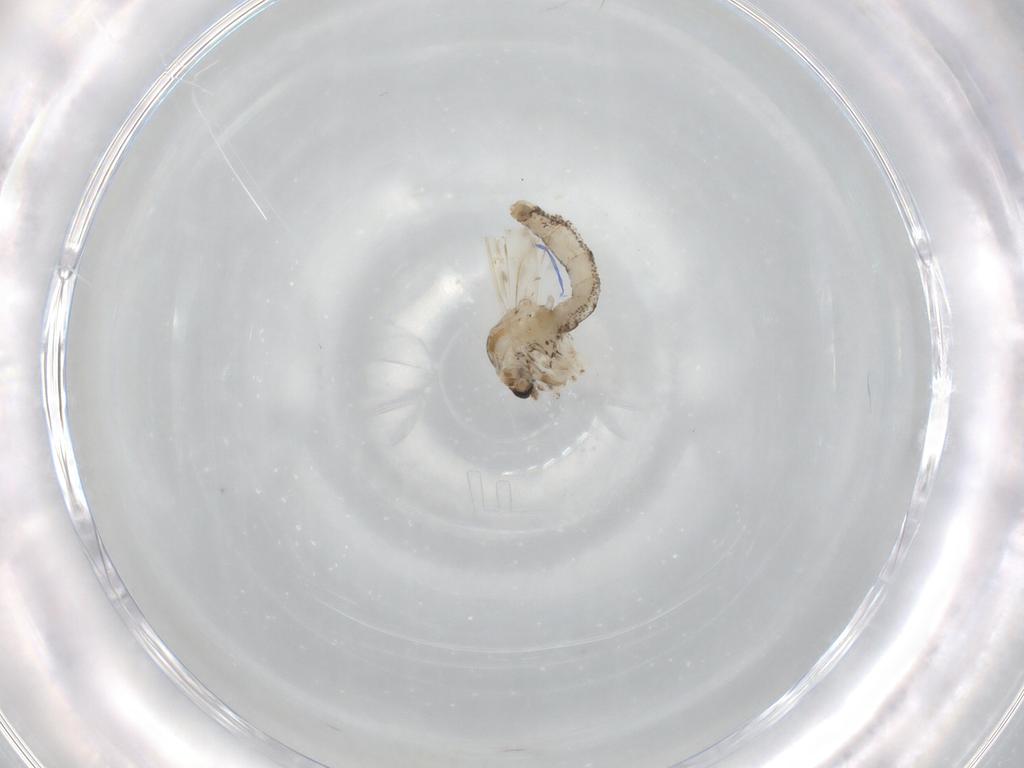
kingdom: Animalia
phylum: Arthropoda
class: Insecta
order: Diptera
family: Chaoboridae
